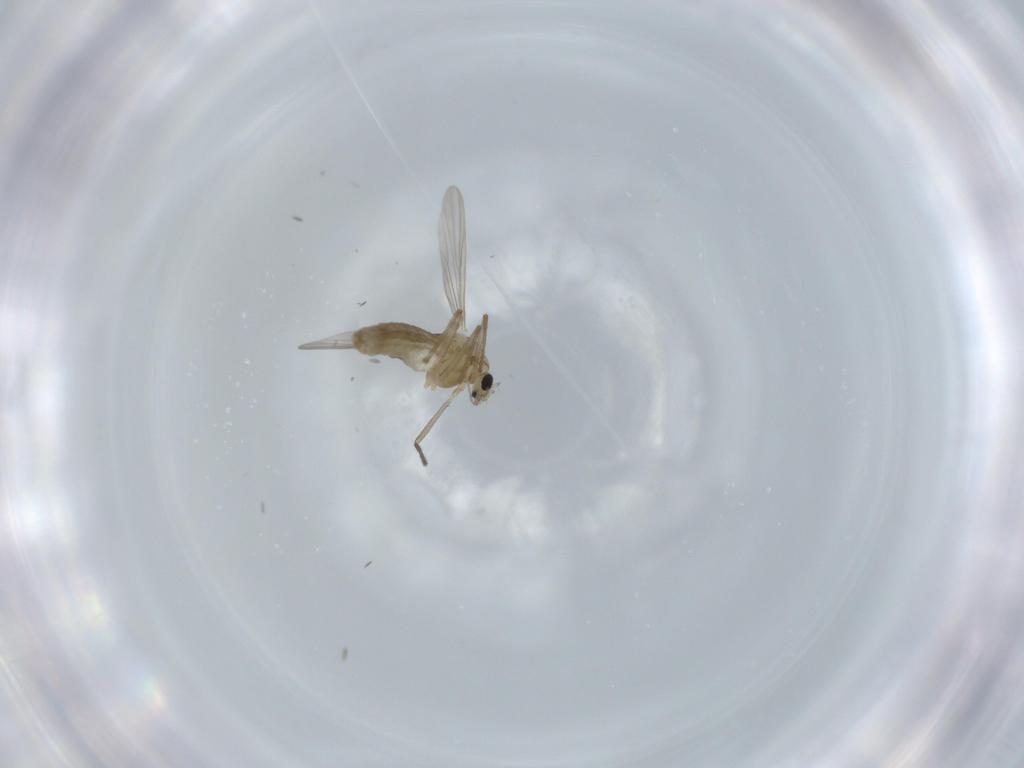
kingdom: Animalia
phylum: Arthropoda
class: Insecta
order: Diptera
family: Chironomidae
